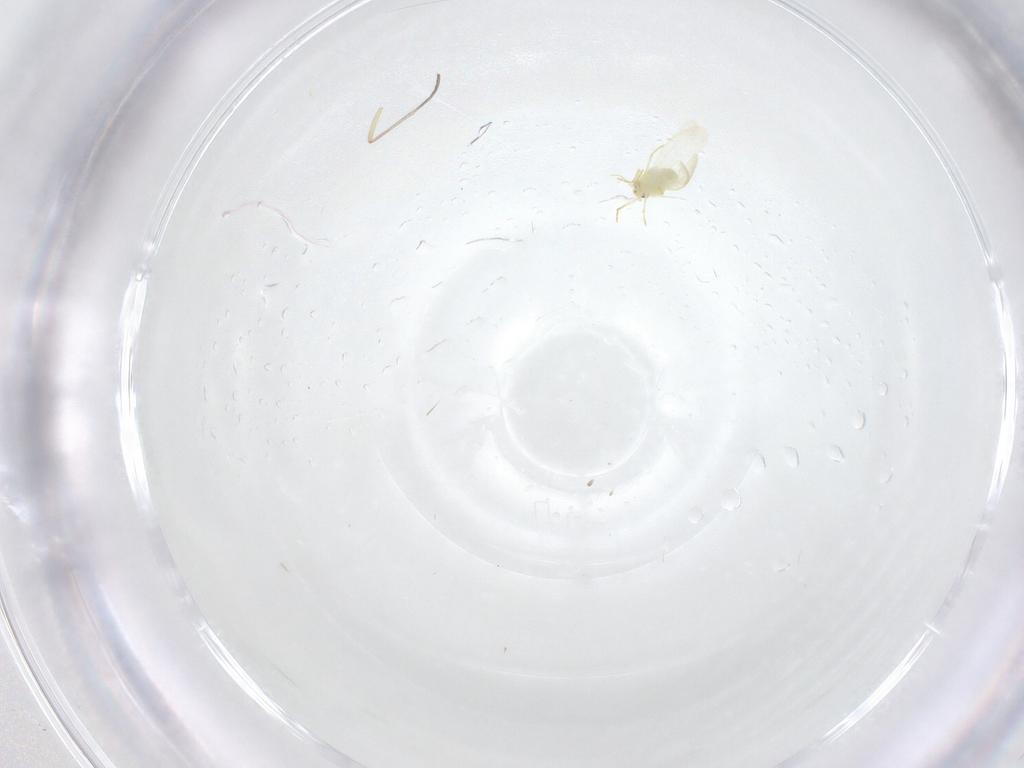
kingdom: Animalia
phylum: Arthropoda
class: Insecta
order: Hemiptera
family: Aleyrodidae
